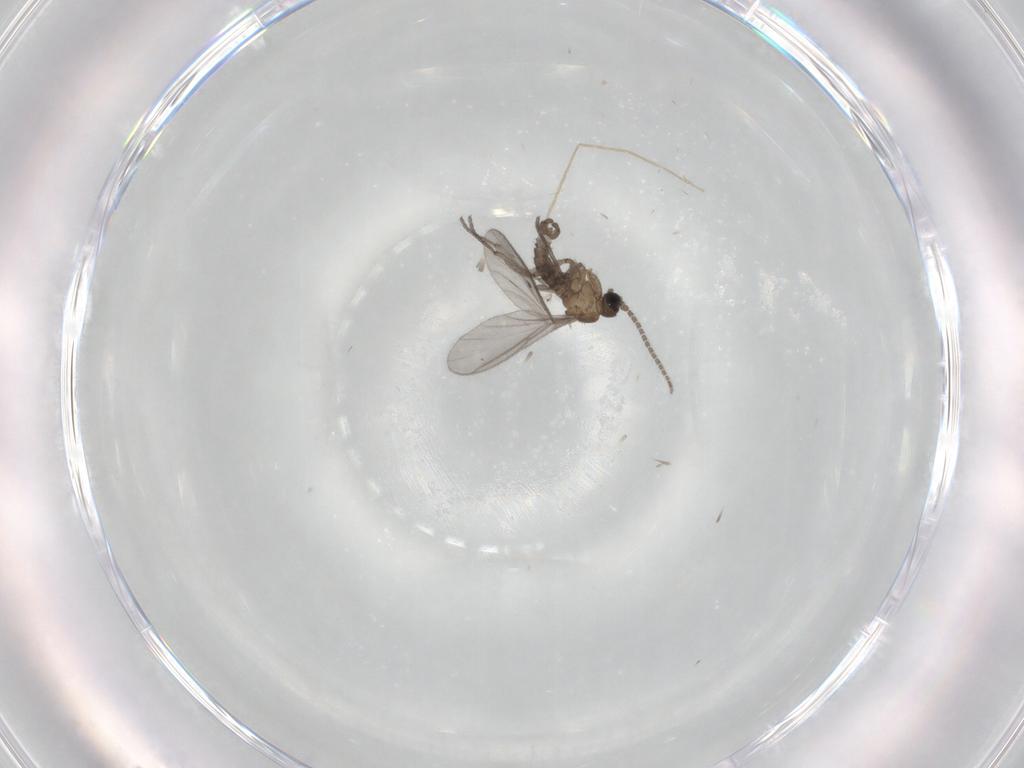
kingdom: Animalia
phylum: Arthropoda
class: Insecta
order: Diptera
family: Sciaridae
